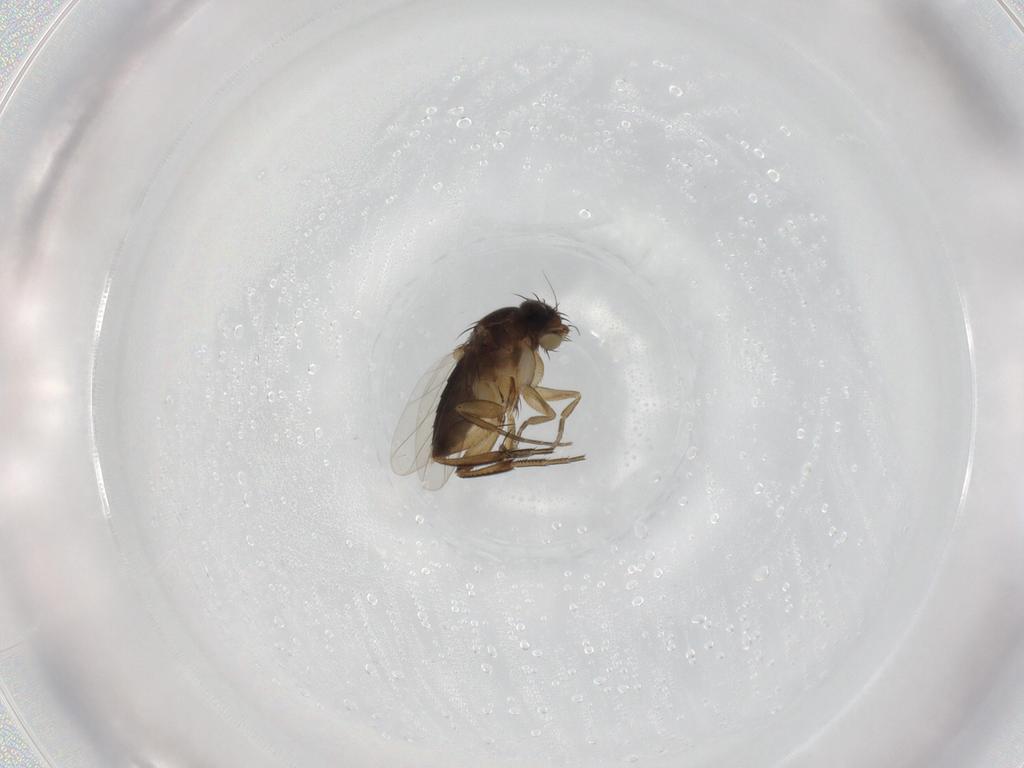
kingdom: Animalia
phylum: Arthropoda
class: Insecta
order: Diptera
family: Phoridae
